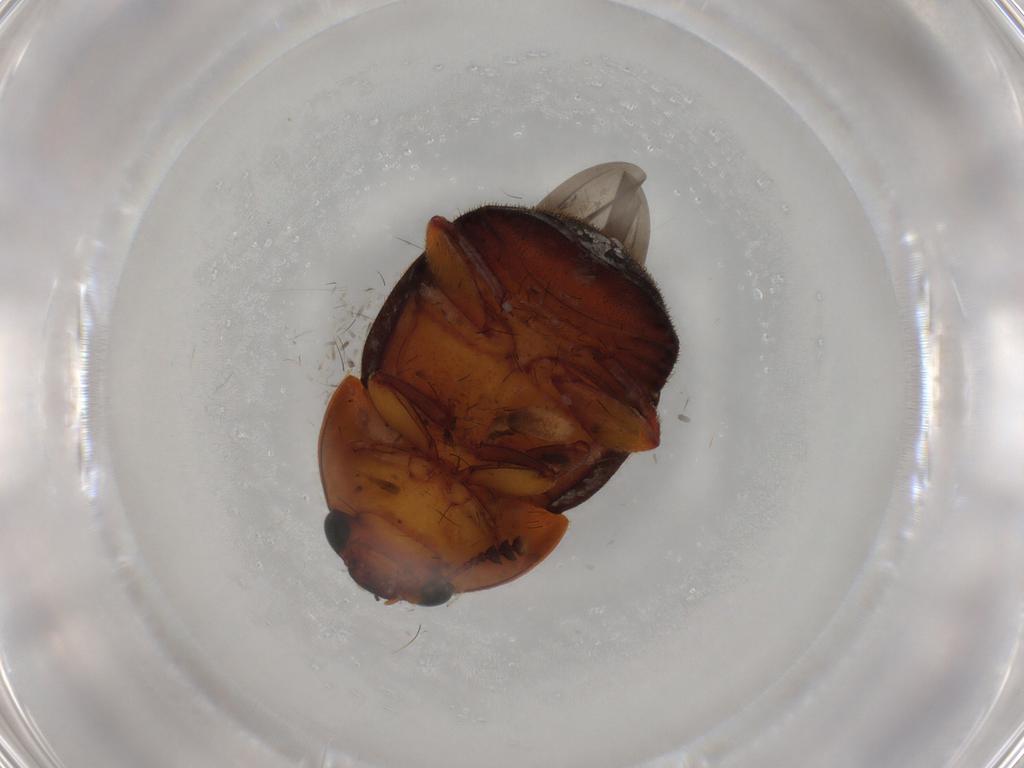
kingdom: Animalia
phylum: Arthropoda
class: Insecta
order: Coleoptera
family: Nitidulidae
